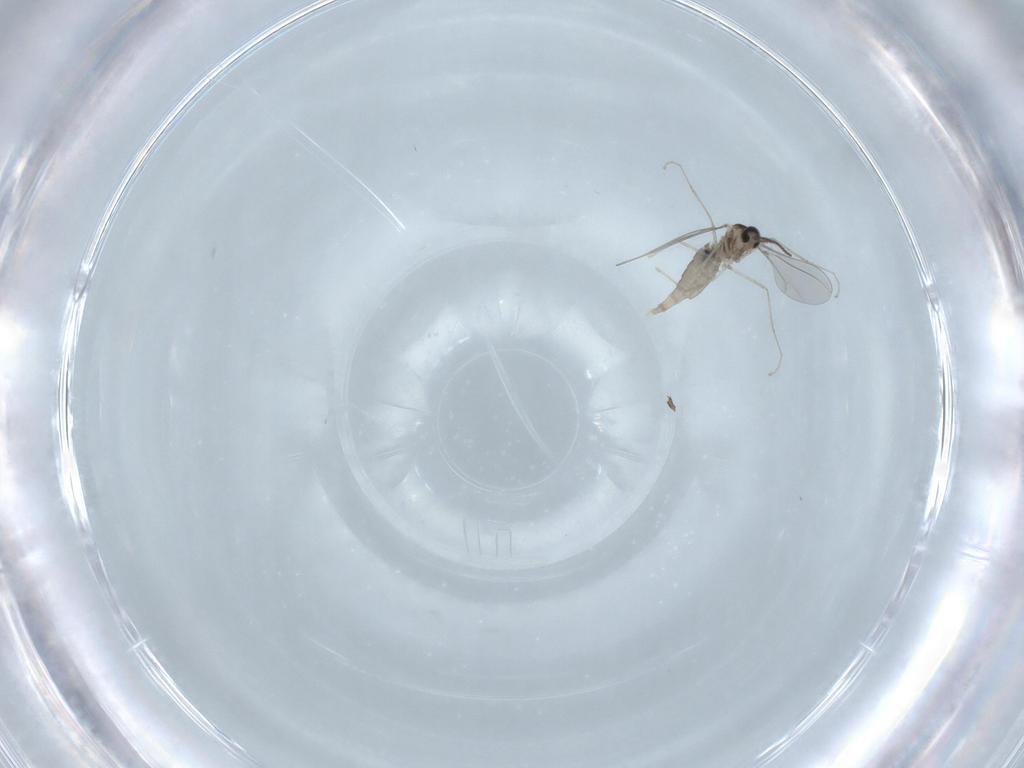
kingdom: Animalia
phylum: Arthropoda
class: Insecta
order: Diptera
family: Cecidomyiidae
